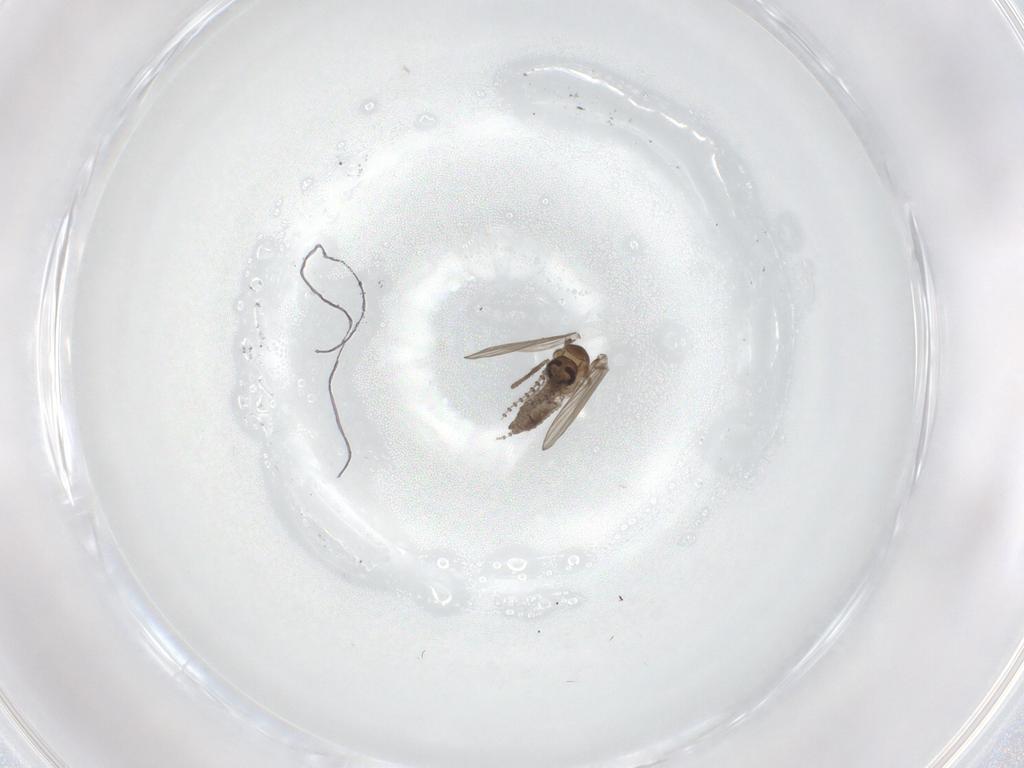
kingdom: Animalia
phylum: Arthropoda
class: Insecta
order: Diptera
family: Psychodidae
